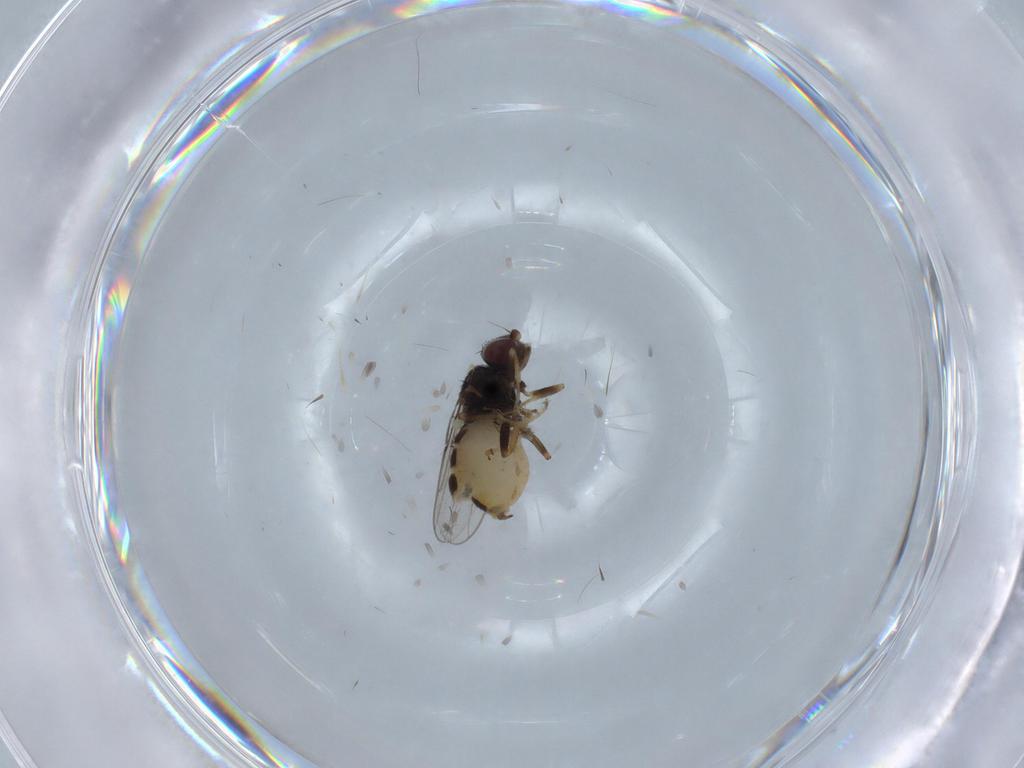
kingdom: Animalia
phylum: Arthropoda
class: Insecta
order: Diptera
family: Chloropidae
